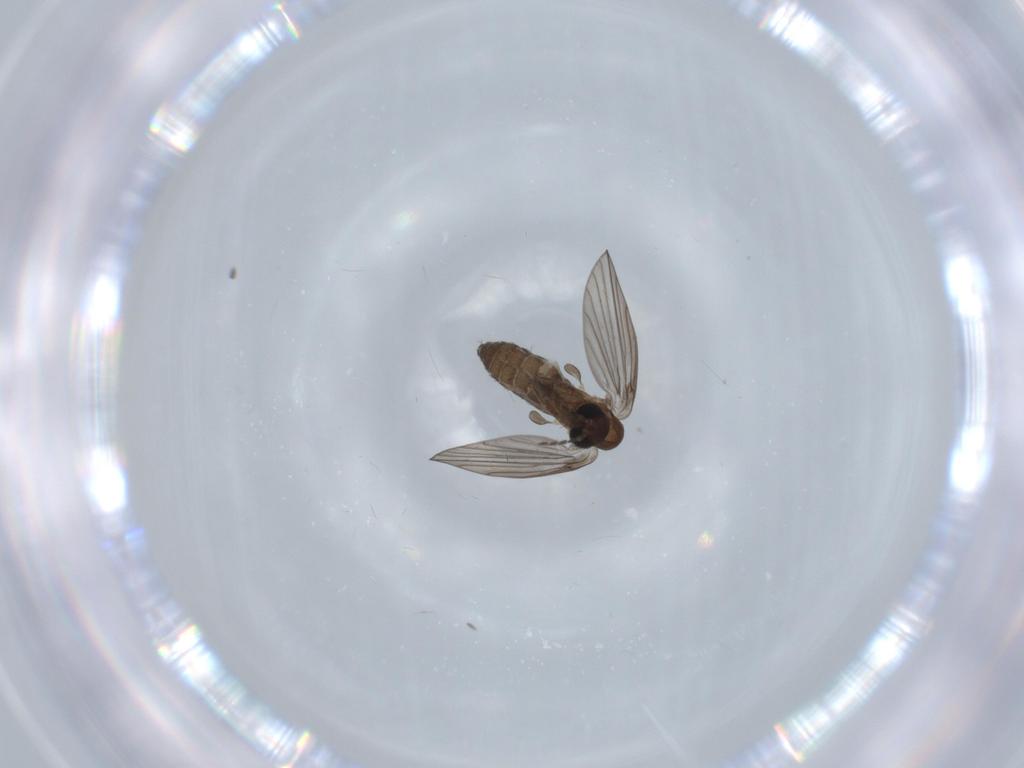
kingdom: Animalia
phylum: Arthropoda
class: Insecta
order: Diptera
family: Psychodidae
